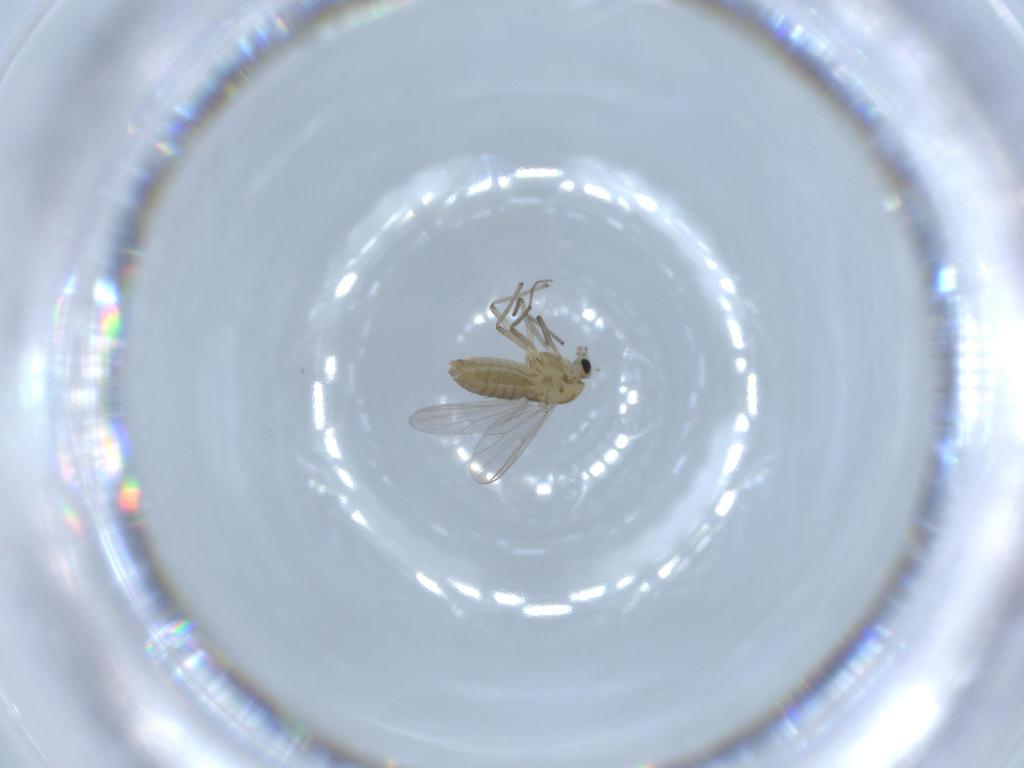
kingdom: Animalia
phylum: Arthropoda
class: Insecta
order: Diptera
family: Chironomidae
